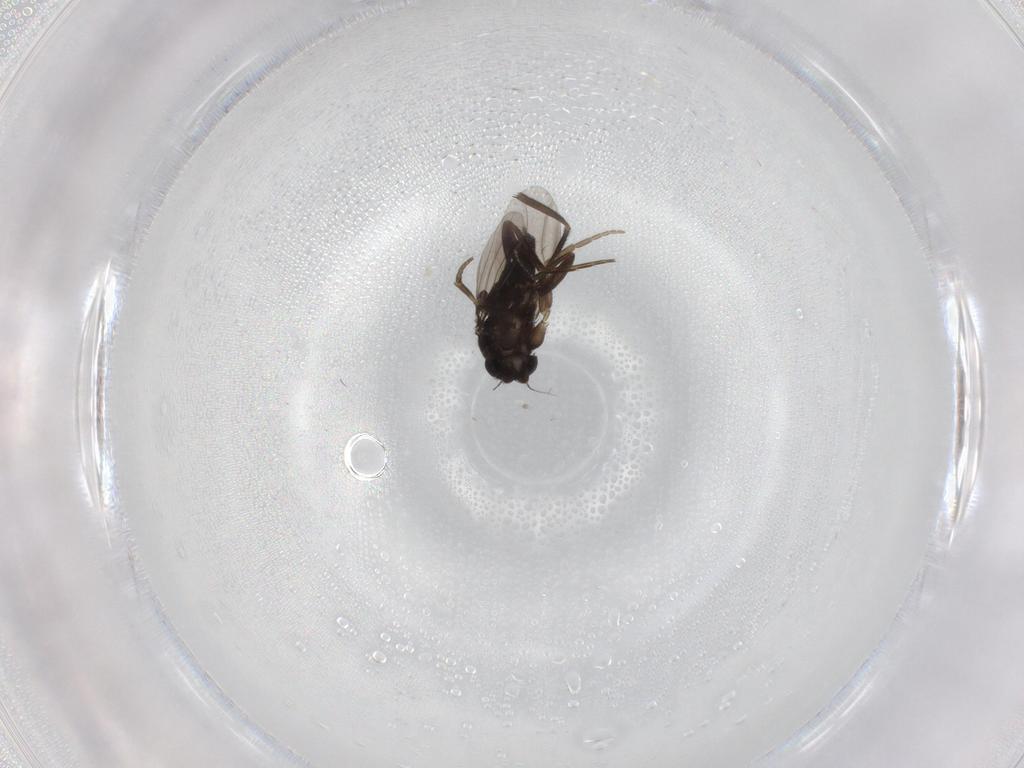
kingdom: Animalia
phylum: Arthropoda
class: Insecta
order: Diptera
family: Cecidomyiidae
